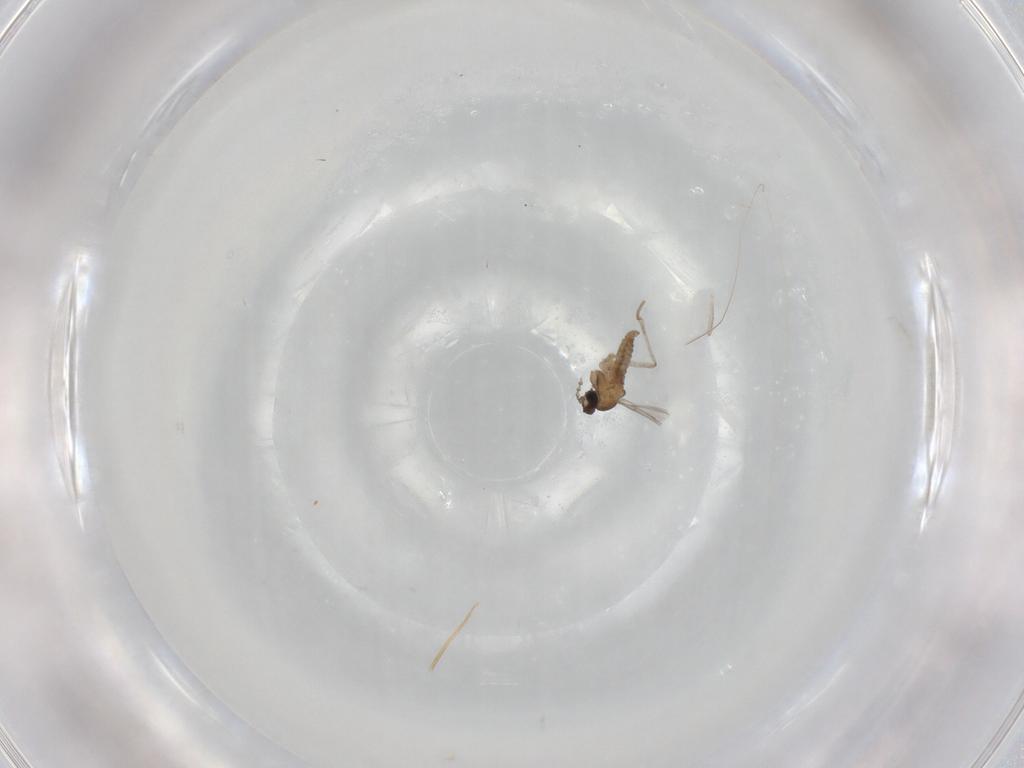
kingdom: Animalia
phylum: Arthropoda
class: Insecta
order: Diptera
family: Cecidomyiidae
